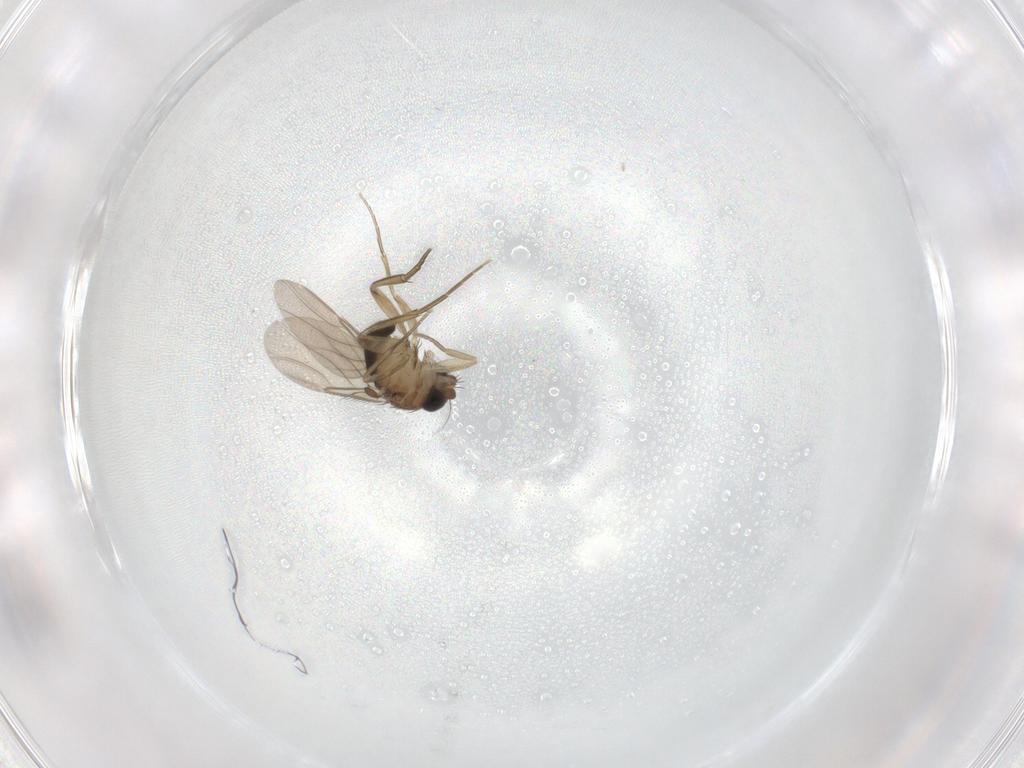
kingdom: Animalia
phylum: Arthropoda
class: Insecta
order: Diptera
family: Phoridae
